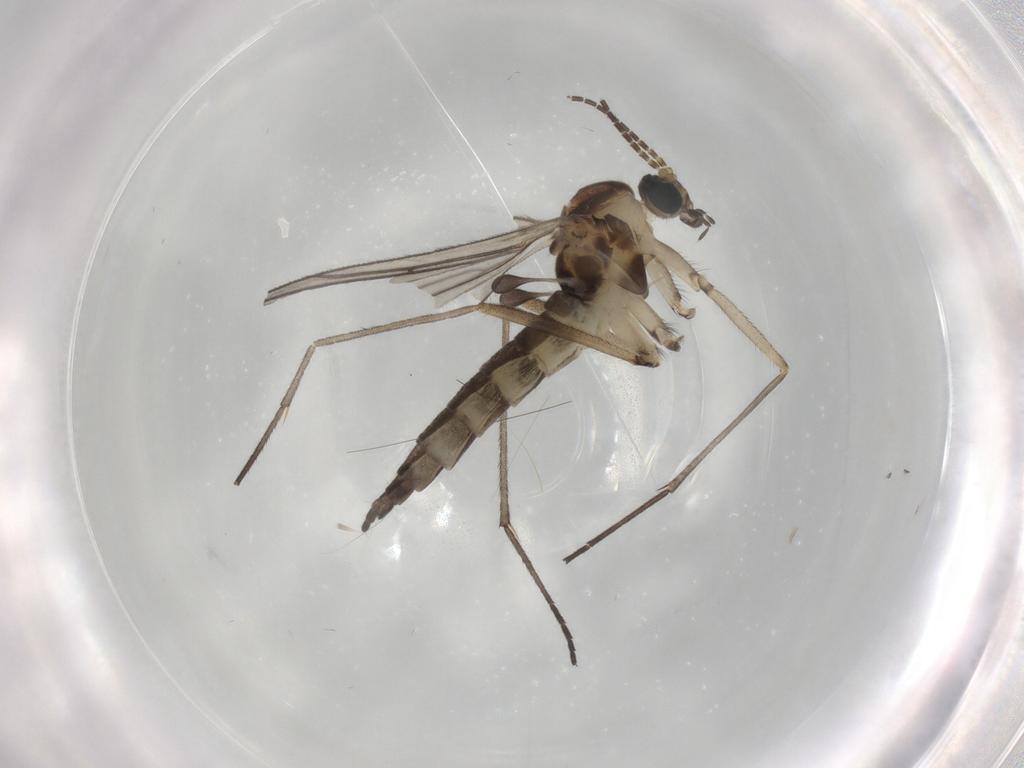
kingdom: Animalia
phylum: Arthropoda
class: Insecta
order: Diptera
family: Sciaridae
